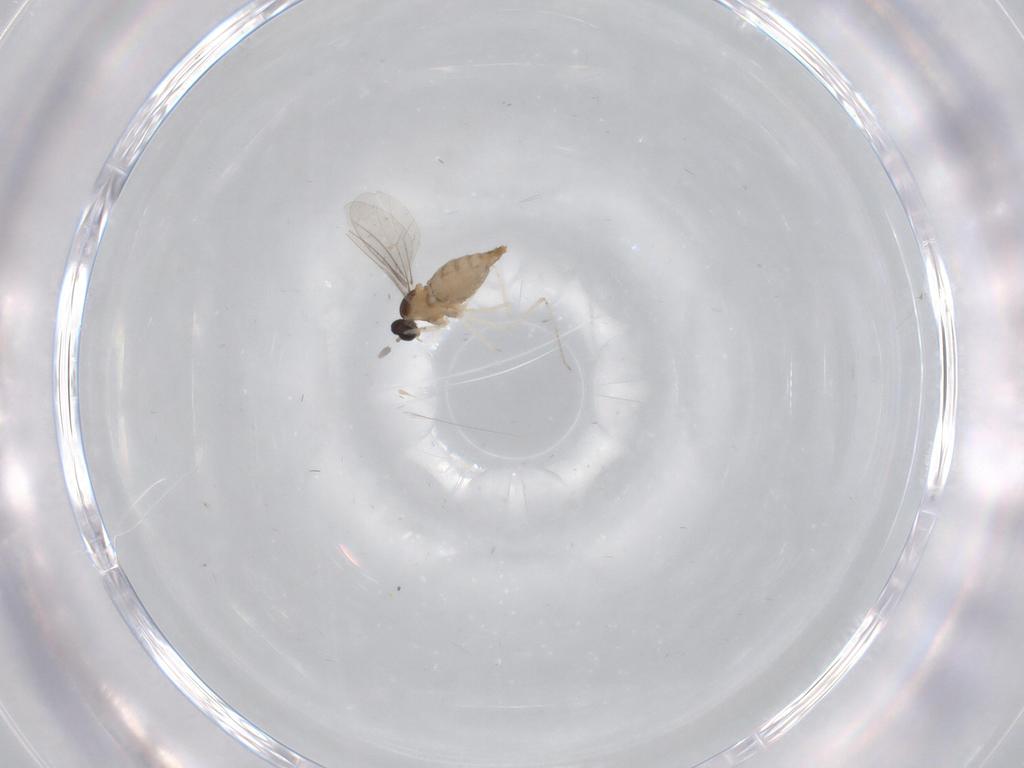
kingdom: Animalia
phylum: Arthropoda
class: Insecta
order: Diptera
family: Cecidomyiidae
